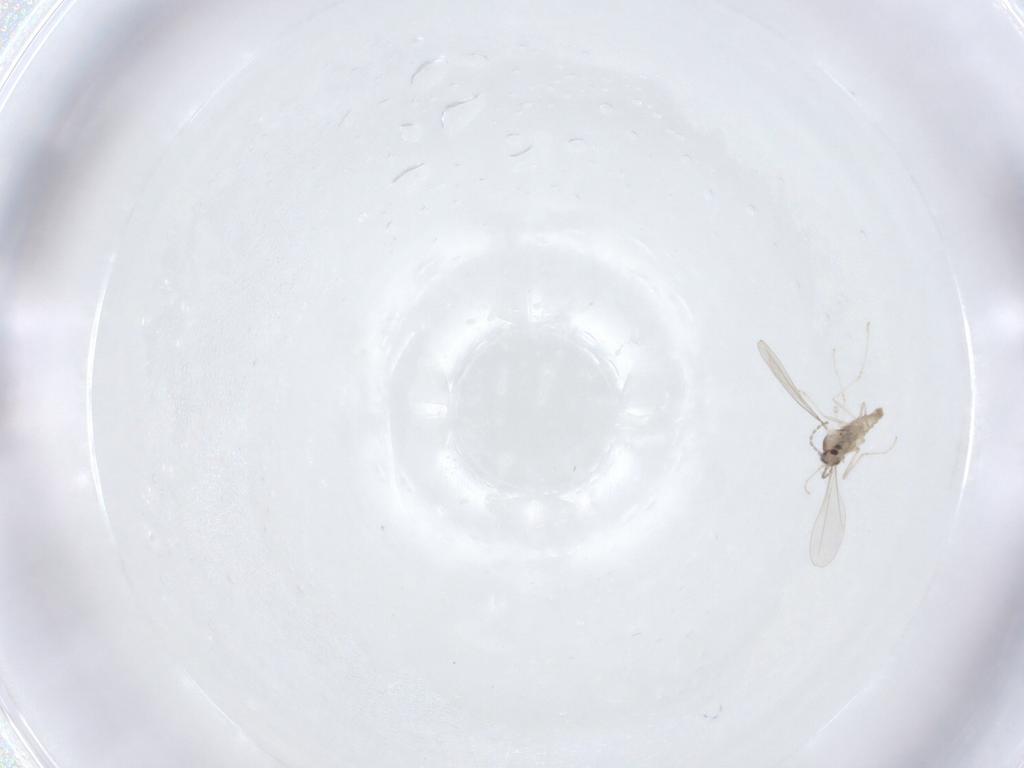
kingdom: Animalia
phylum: Arthropoda
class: Insecta
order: Diptera
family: Cecidomyiidae
